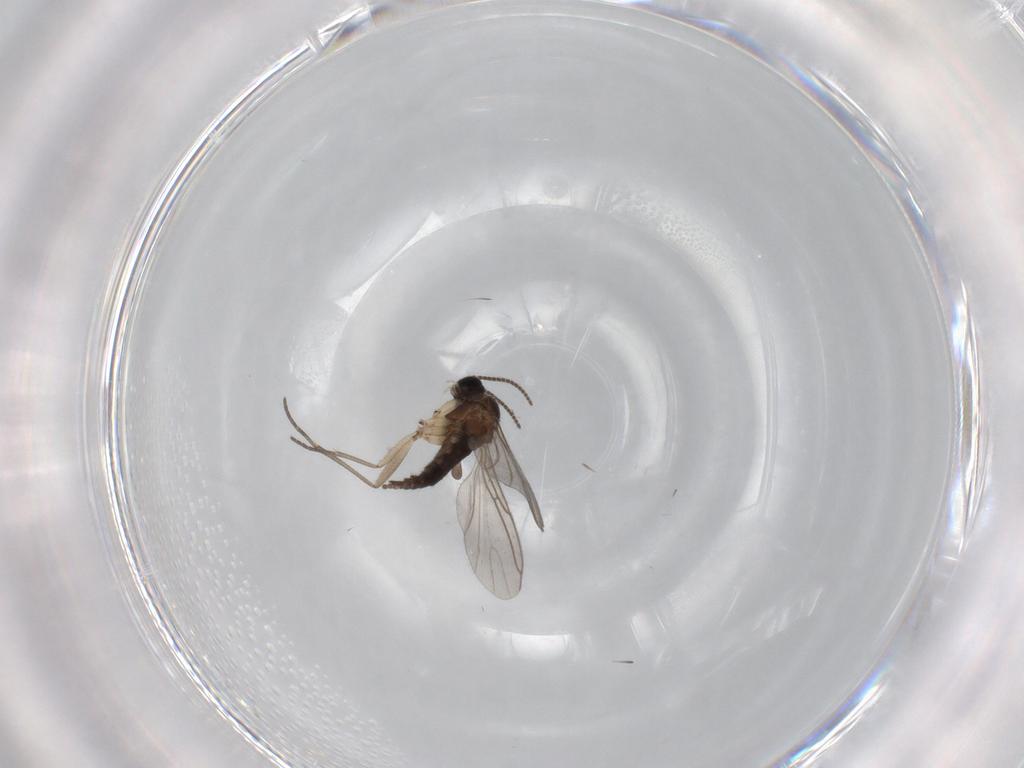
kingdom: Animalia
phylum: Arthropoda
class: Insecta
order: Diptera
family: Sciaridae
